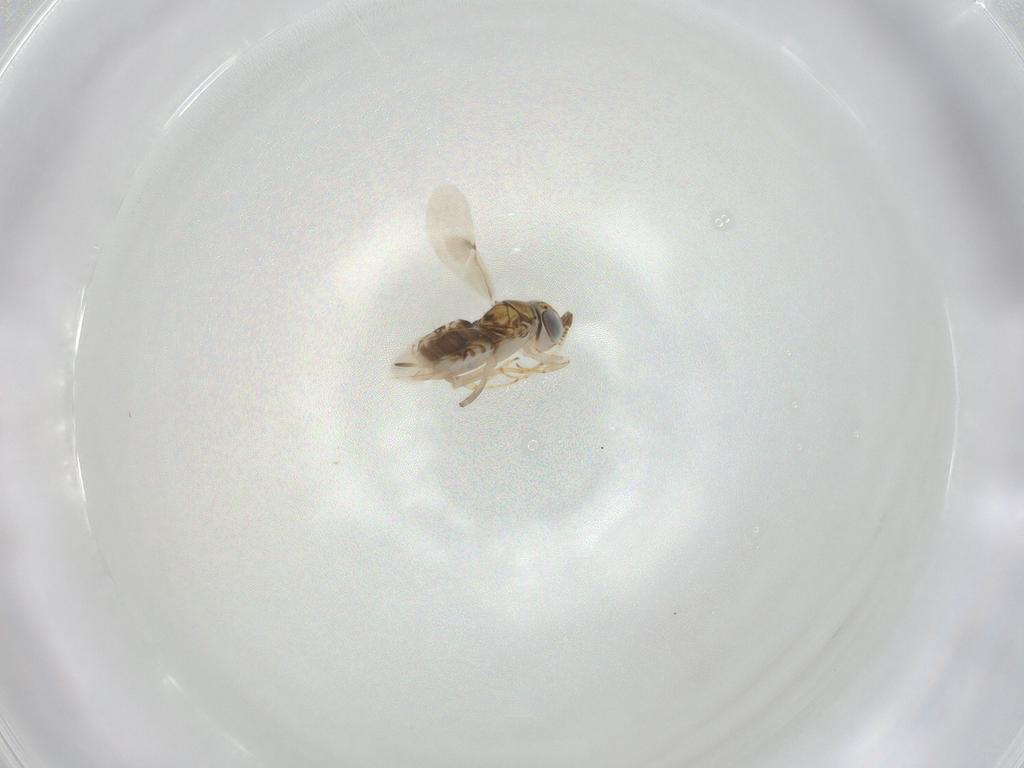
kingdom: Animalia
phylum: Arthropoda
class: Insecta
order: Hymenoptera
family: Encyrtidae
